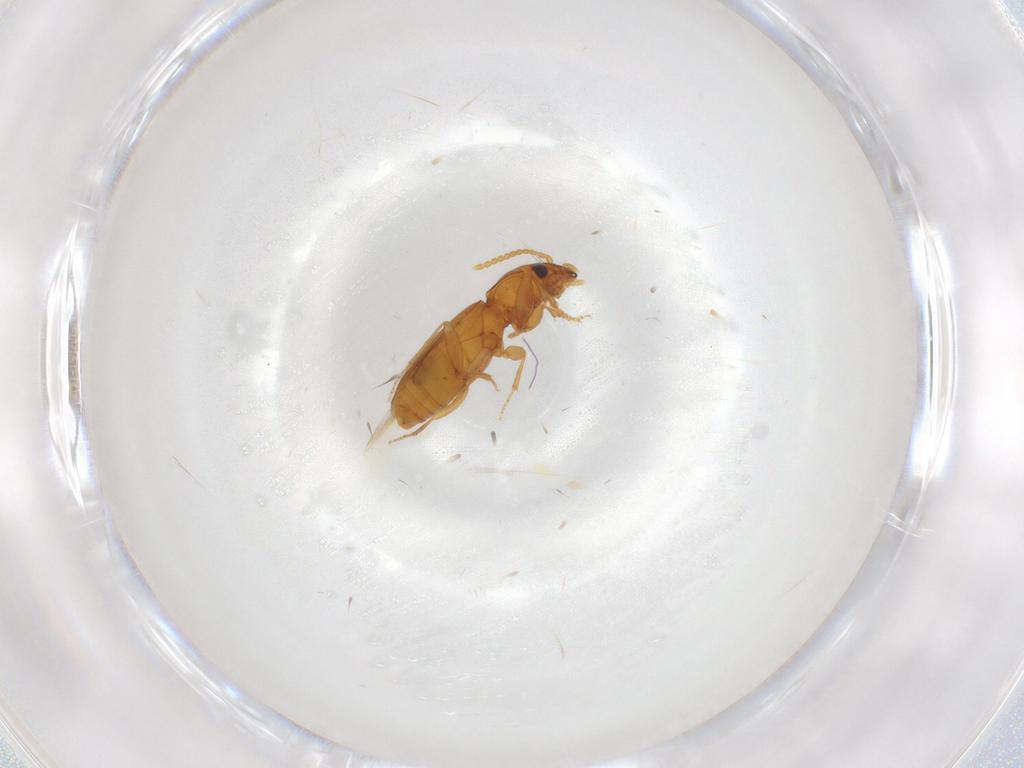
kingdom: Animalia
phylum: Arthropoda
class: Insecta
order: Coleoptera
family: Carabidae
